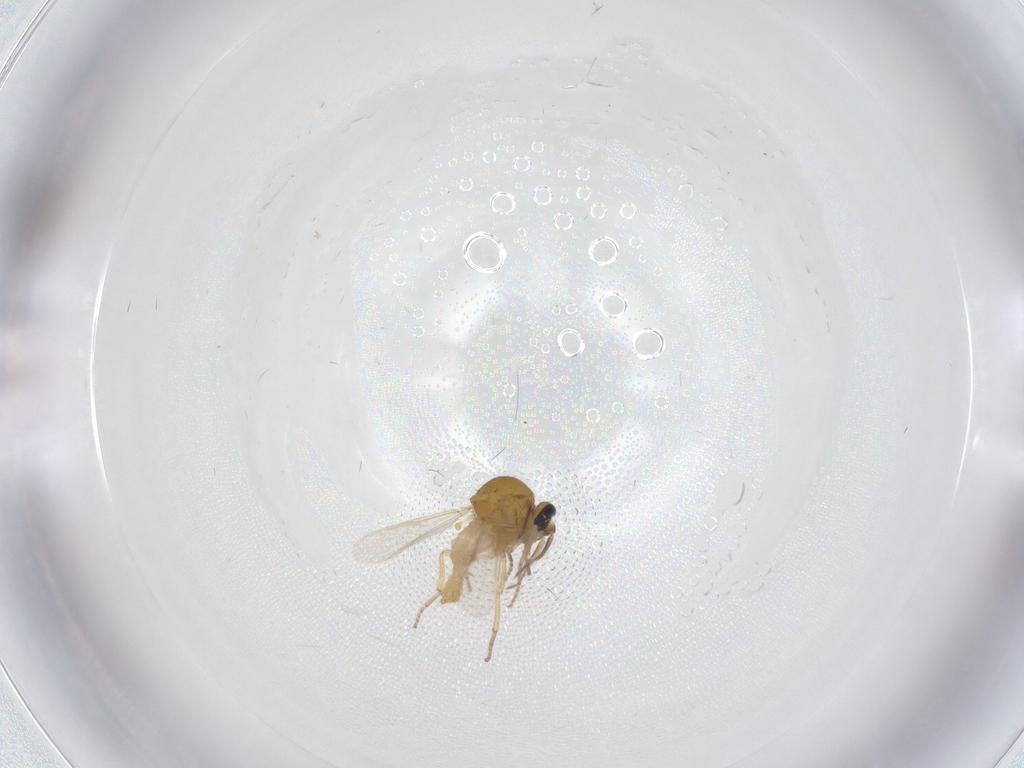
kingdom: Animalia
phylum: Arthropoda
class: Insecta
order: Diptera
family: Ceratopogonidae
